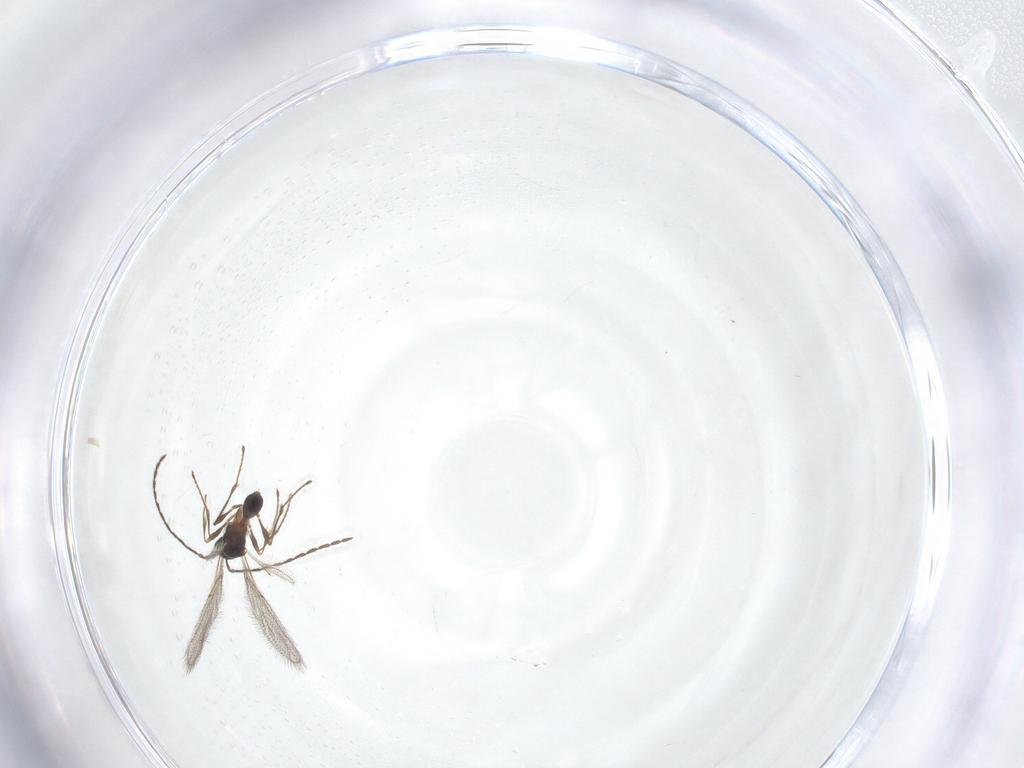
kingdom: Animalia
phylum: Arthropoda
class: Insecta
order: Hymenoptera
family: Diapriidae
